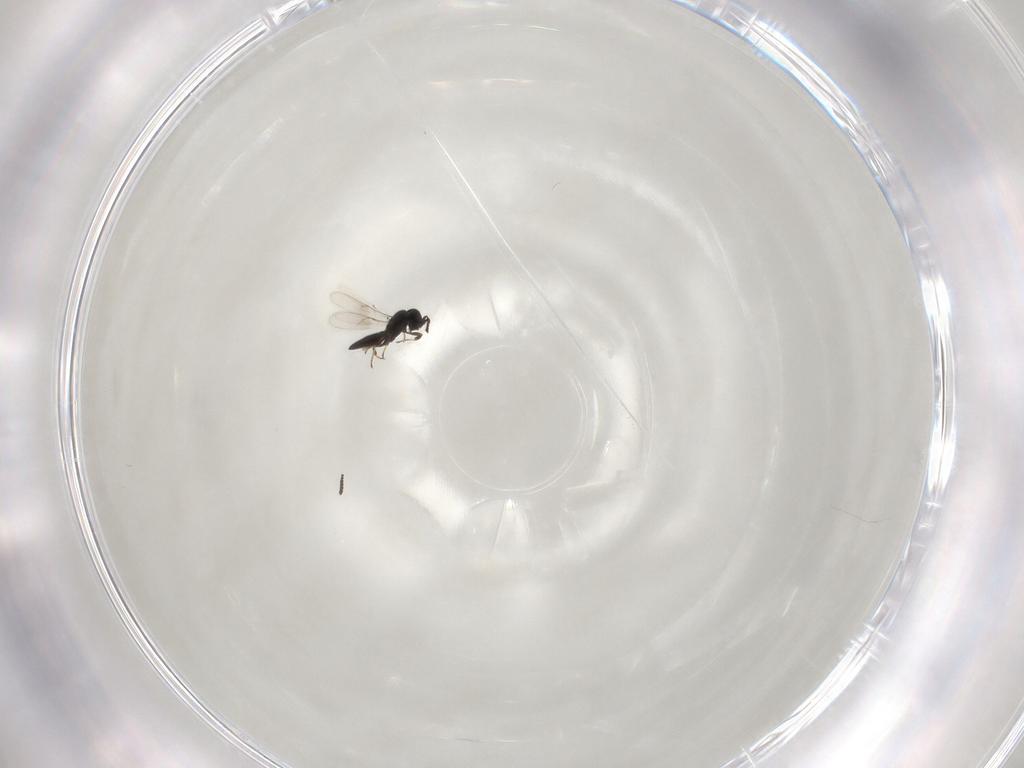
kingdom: Animalia
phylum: Arthropoda
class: Insecta
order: Hymenoptera
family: Scelionidae
